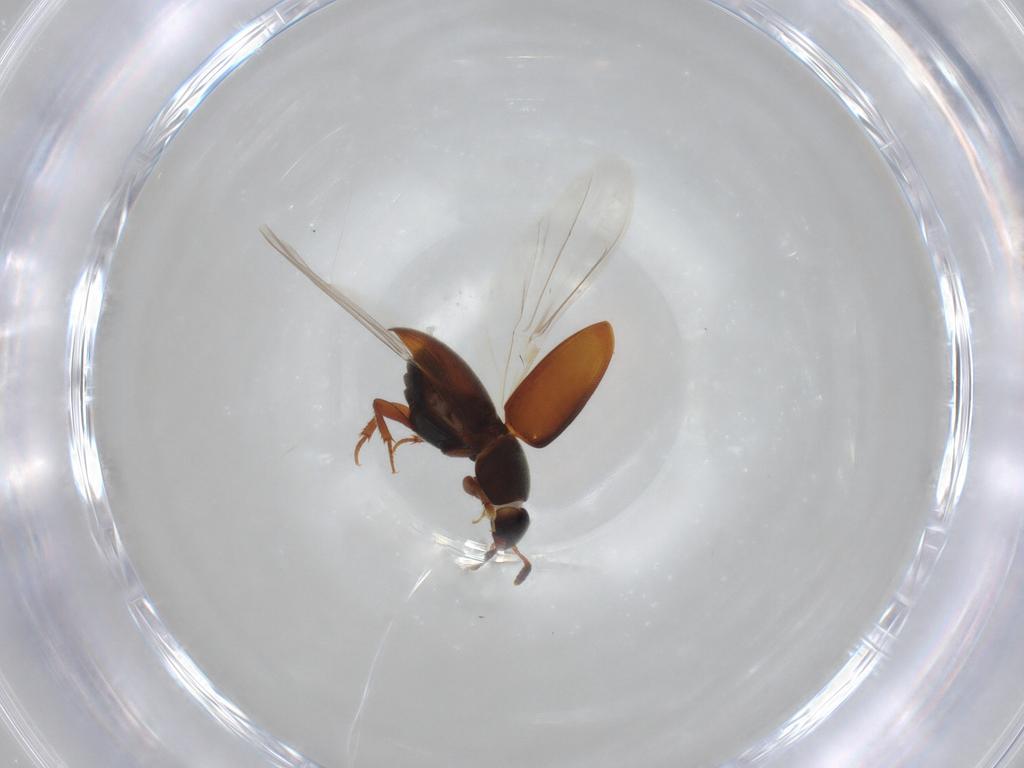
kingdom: Animalia
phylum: Arthropoda
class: Insecta
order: Coleoptera
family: Leiodidae
